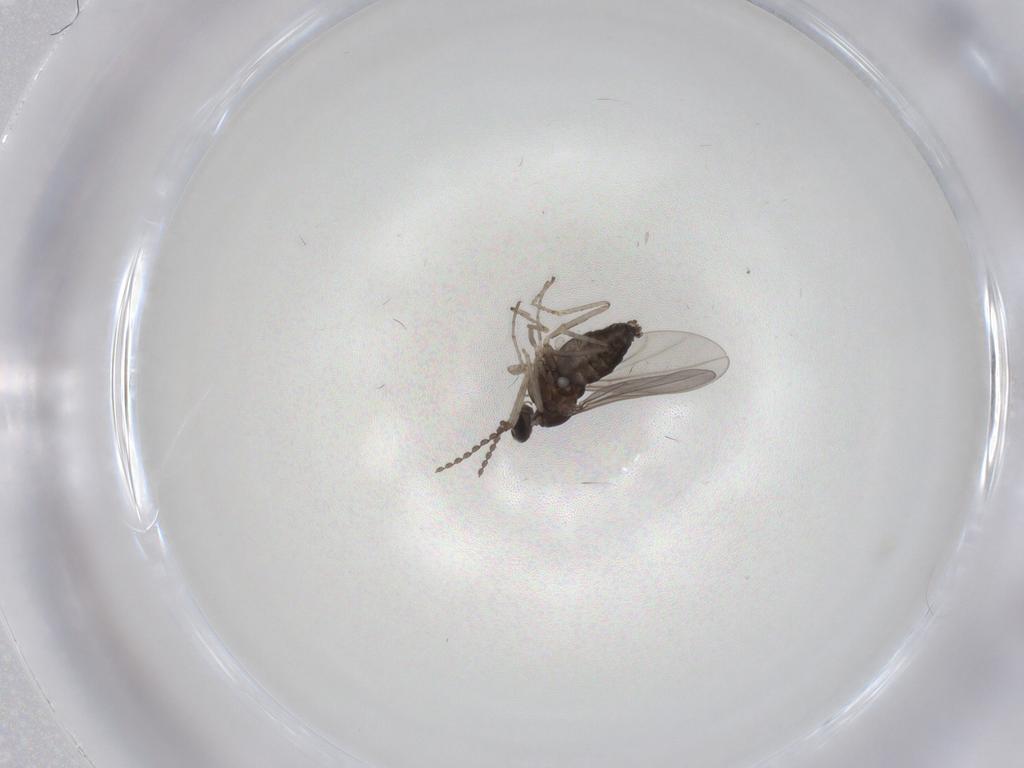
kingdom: Animalia
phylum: Arthropoda
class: Insecta
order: Diptera
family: Cecidomyiidae
